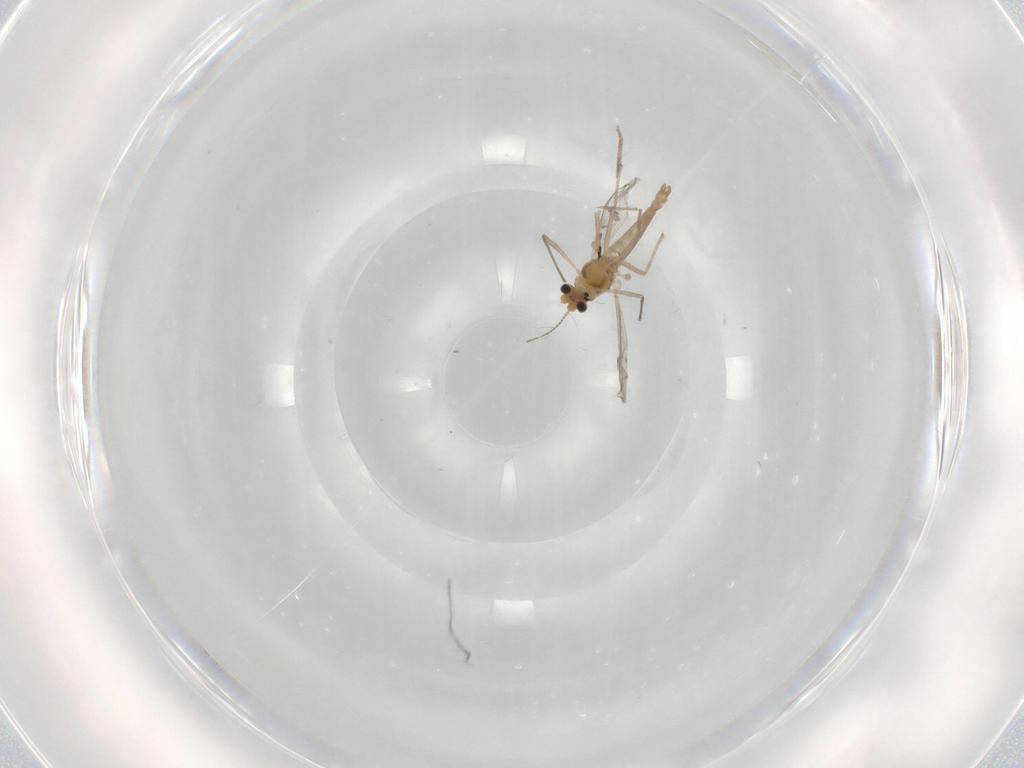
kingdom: Animalia
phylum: Arthropoda
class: Insecta
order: Diptera
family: Chironomidae
